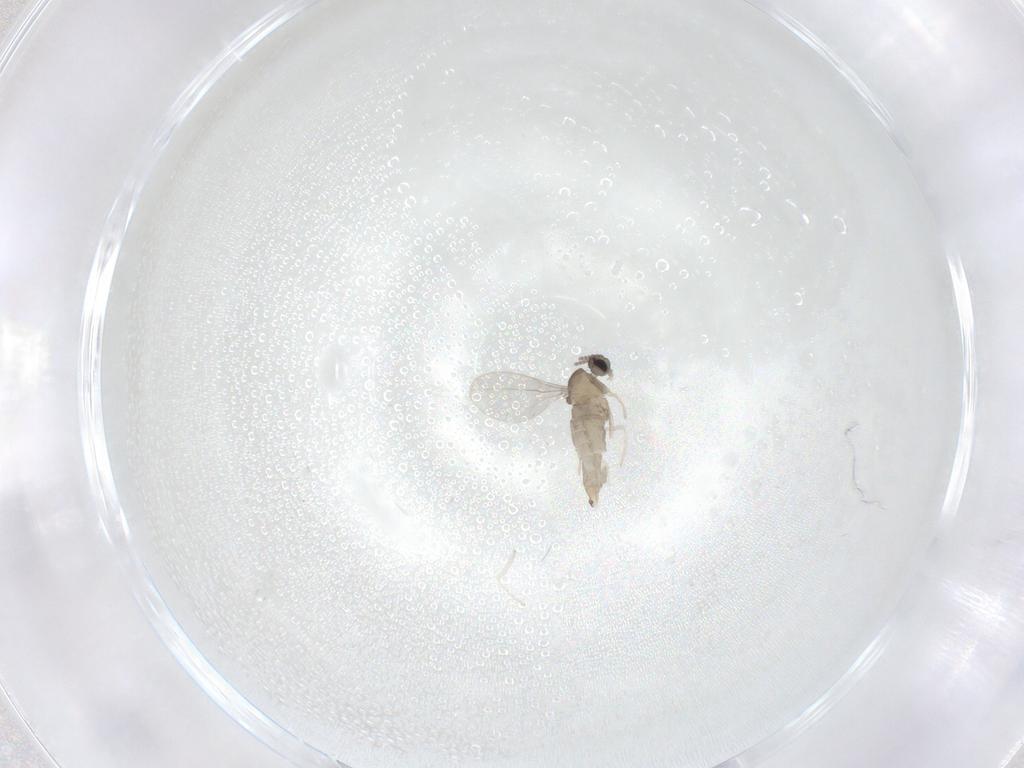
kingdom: Animalia
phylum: Arthropoda
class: Insecta
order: Diptera
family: Cecidomyiidae
